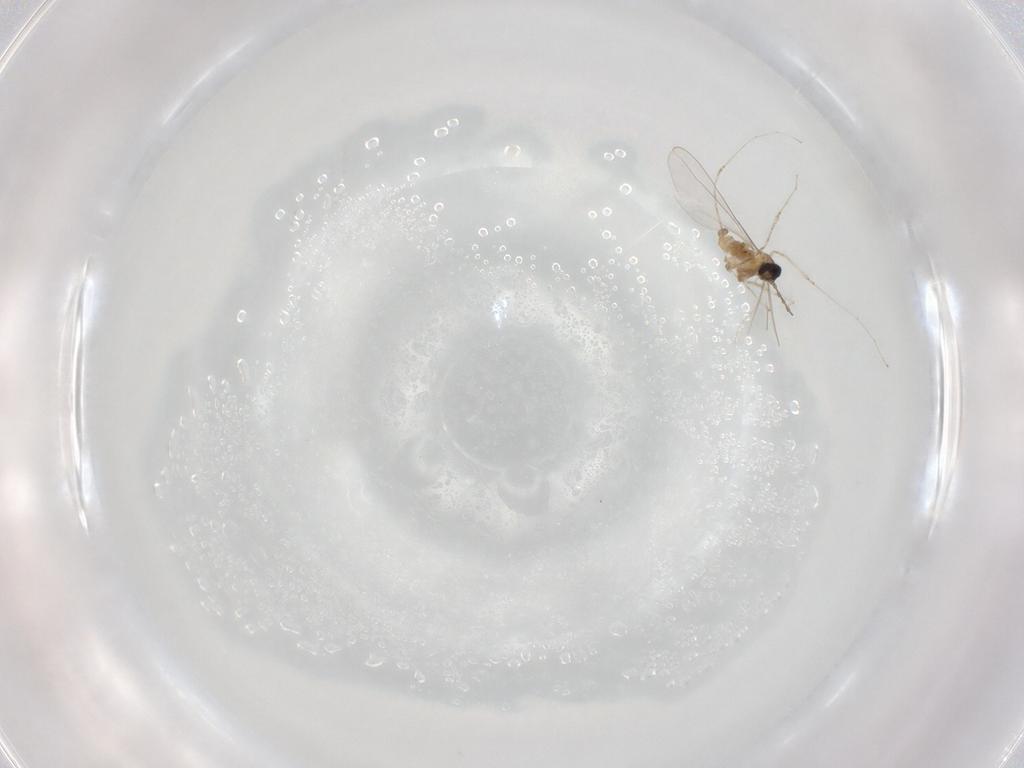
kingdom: Animalia
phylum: Arthropoda
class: Insecta
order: Diptera
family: Cecidomyiidae
